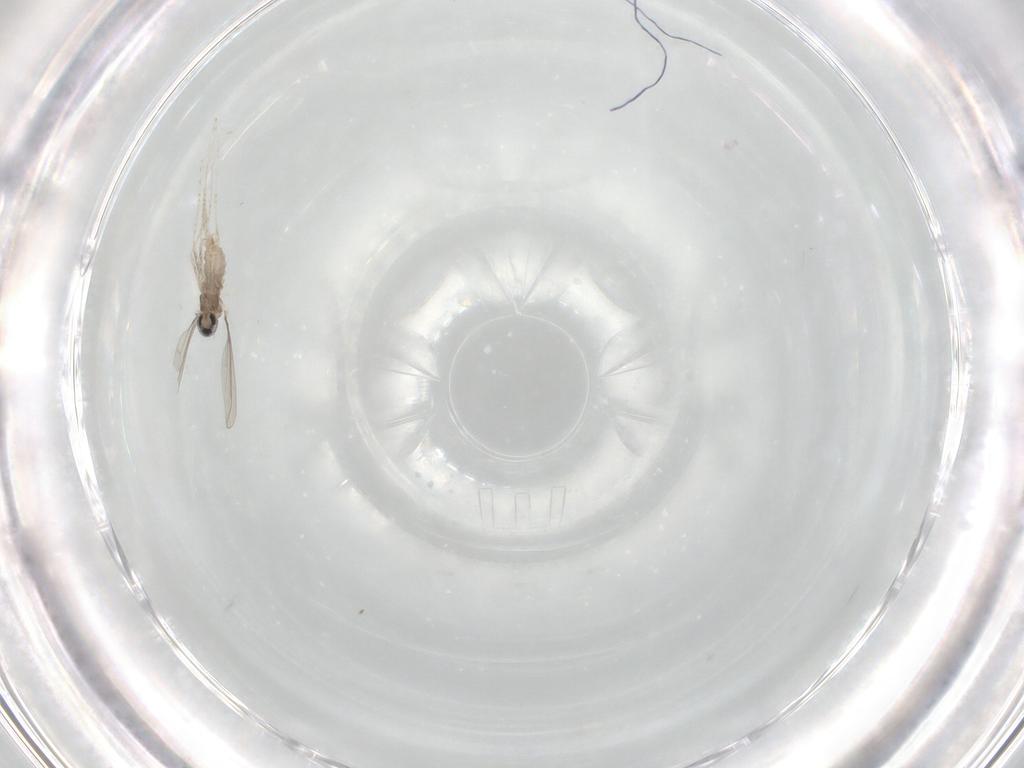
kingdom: Animalia
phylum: Arthropoda
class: Insecta
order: Diptera
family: Cecidomyiidae
